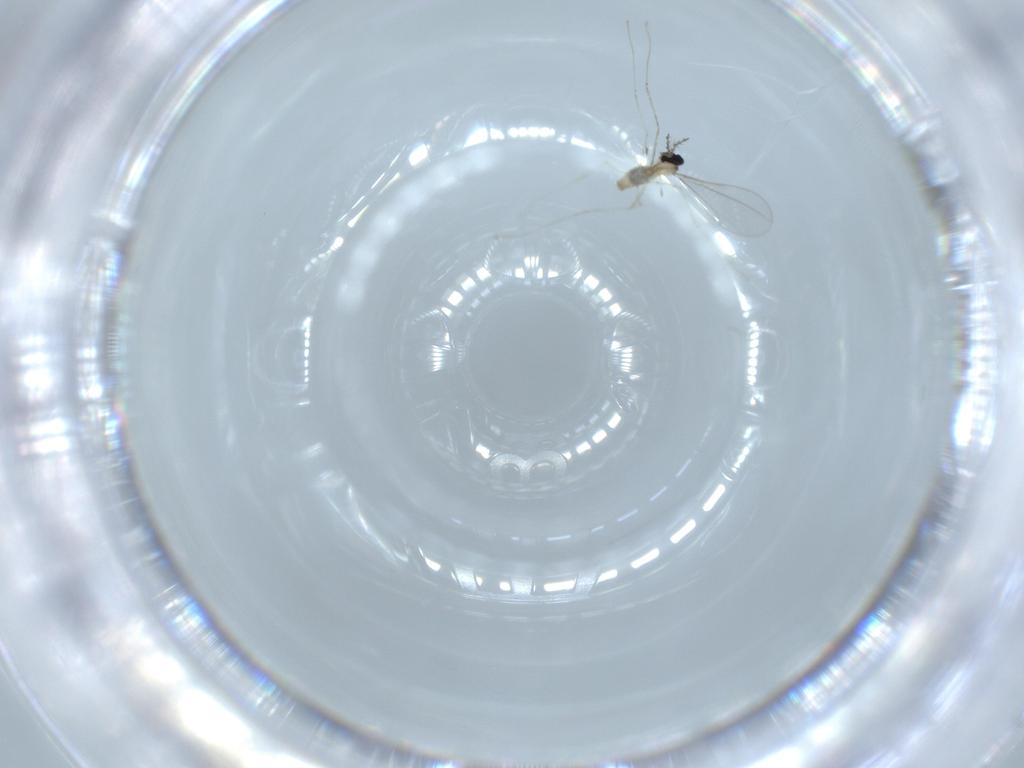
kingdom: Animalia
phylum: Arthropoda
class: Insecta
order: Diptera
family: Cecidomyiidae
